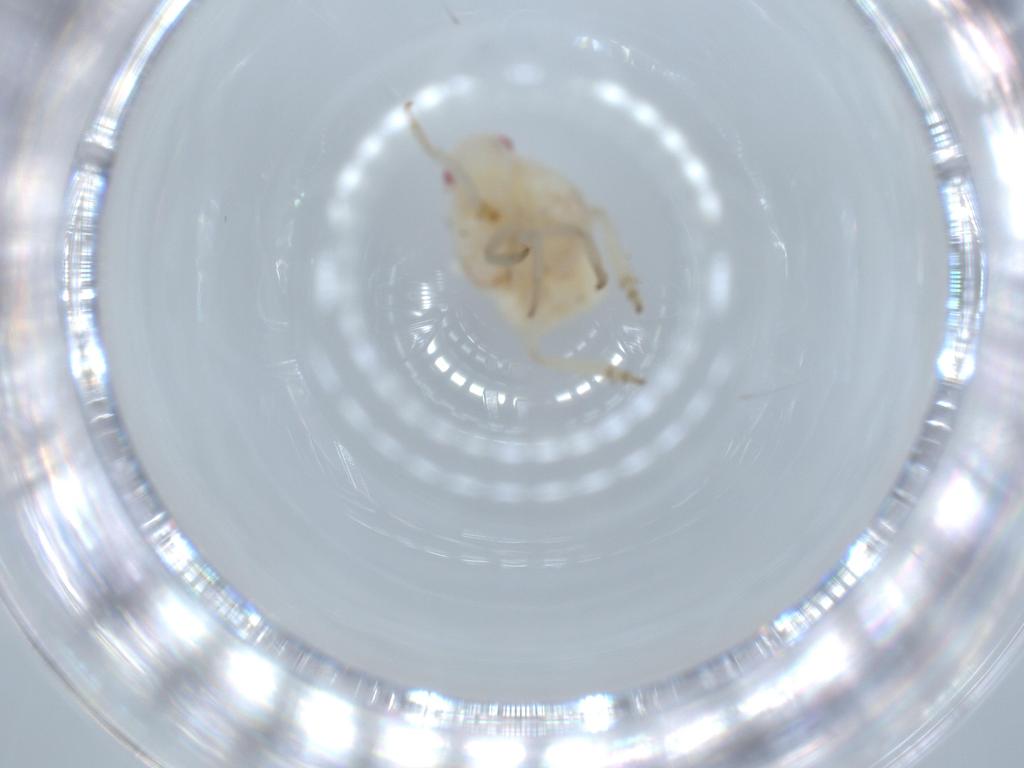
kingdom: Animalia
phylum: Arthropoda
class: Insecta
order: Hemiptera
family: Flatidae
